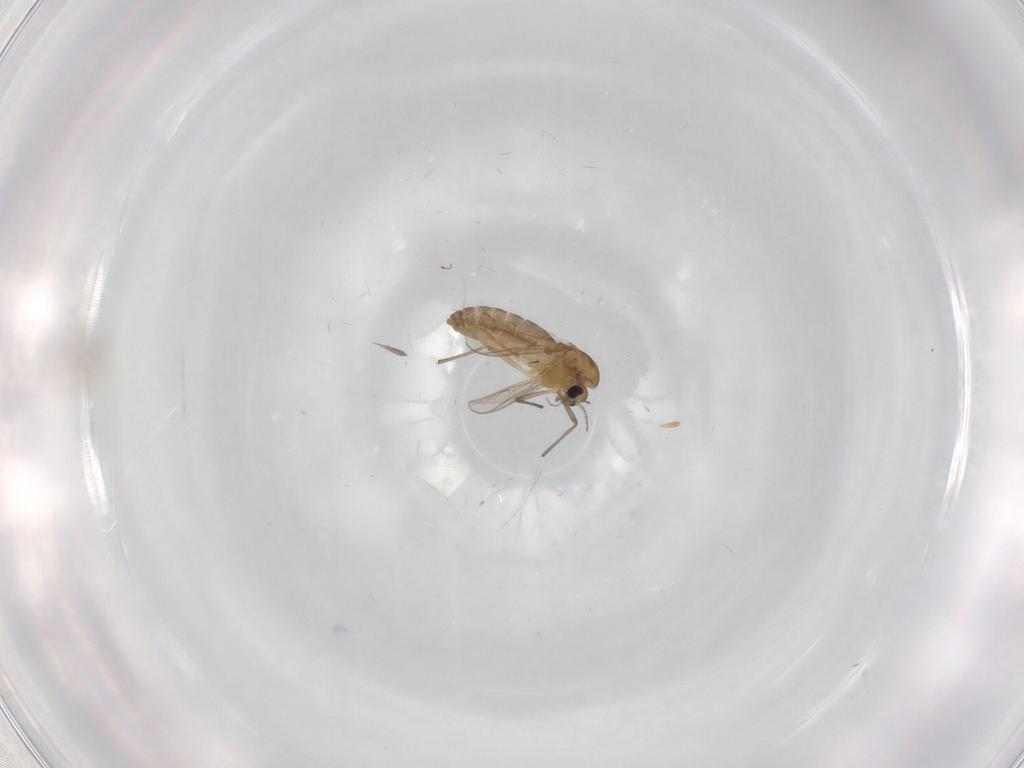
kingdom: Animalia
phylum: Arthropoda
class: Insecta
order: Diptera
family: Chironomidae
